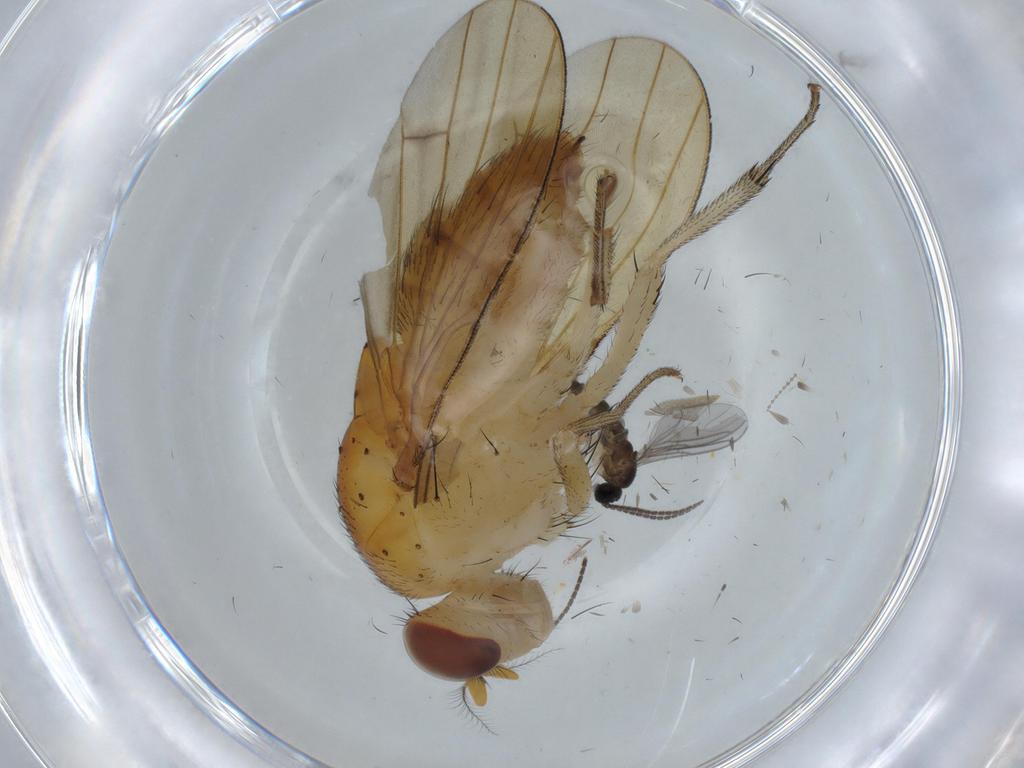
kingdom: Animalia
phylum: Arthropoda
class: Insecta
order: Diptera
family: Lauxaniidae
